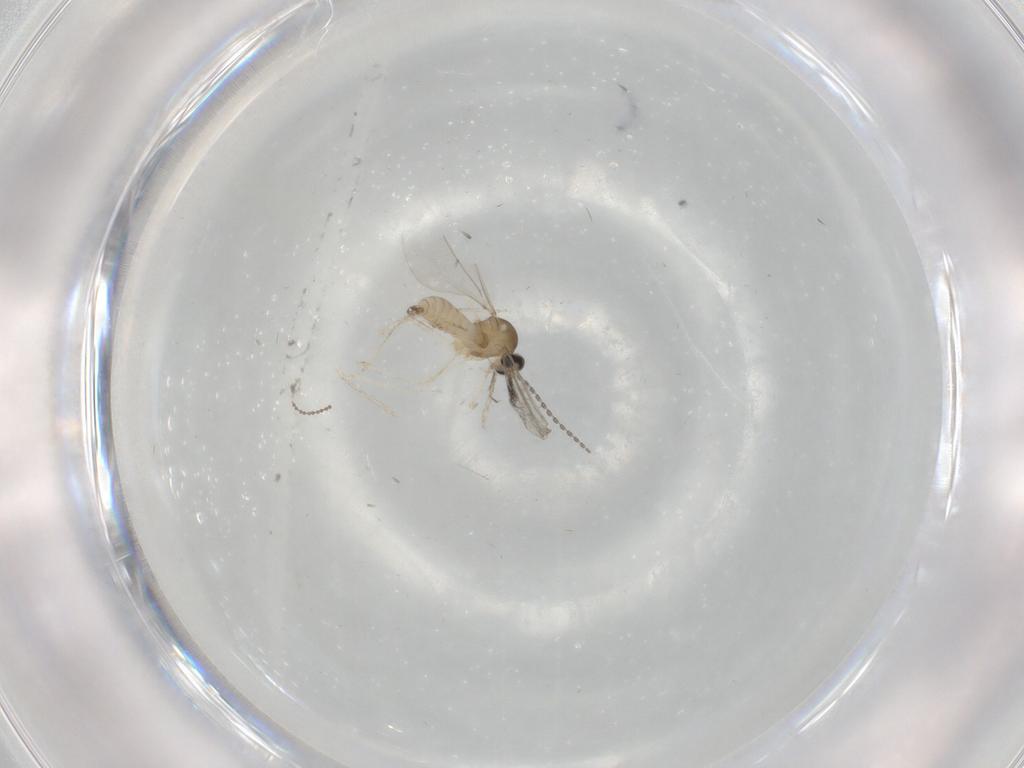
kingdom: Animalia
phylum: Arthropoda
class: Insecta
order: Diptera
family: Cecidomyiidae
